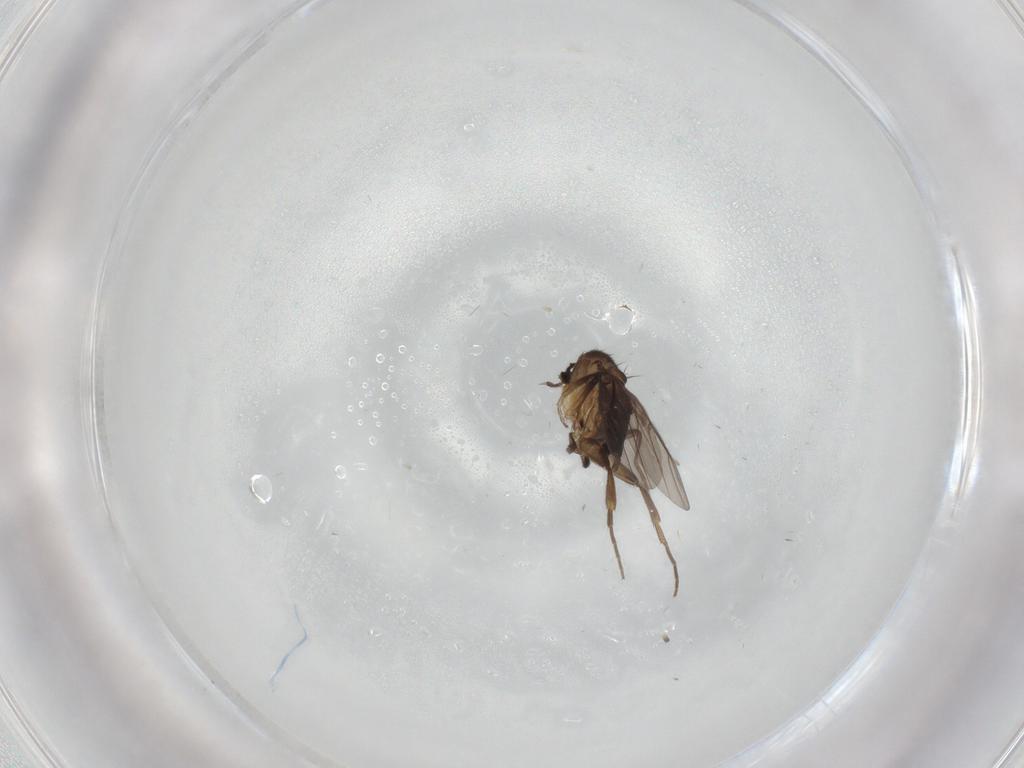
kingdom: Animalia
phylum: Arthropoda
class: Insecta
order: Diptera
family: Phoridae
